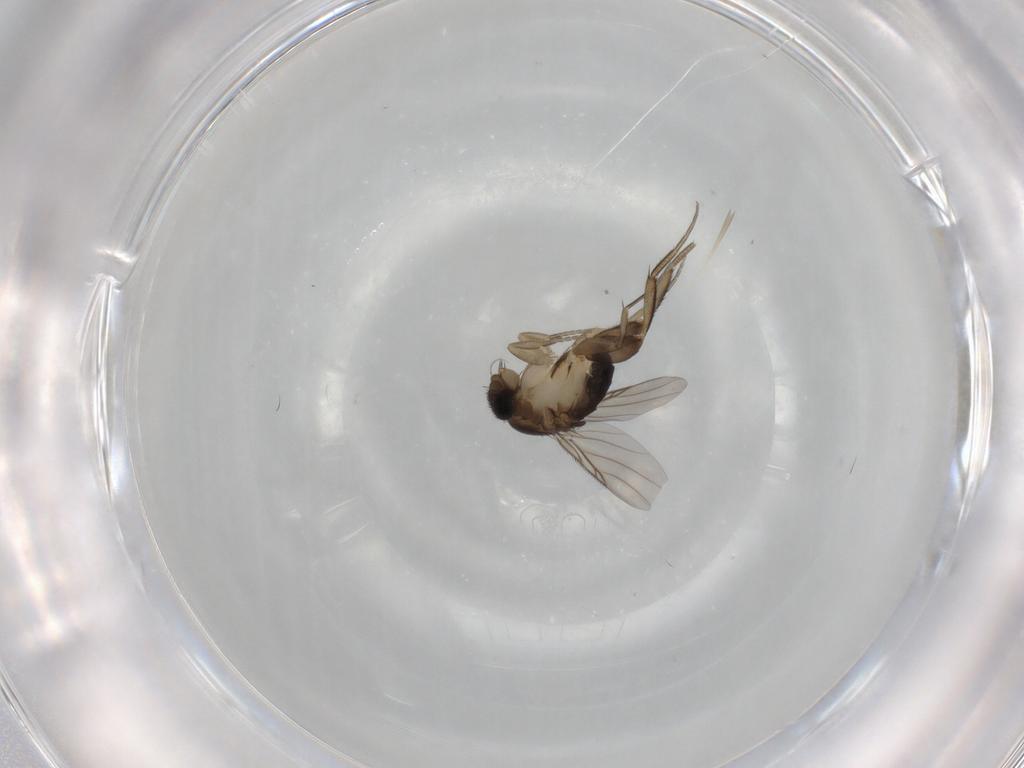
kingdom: Animalia
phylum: Arthropoda
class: Insecta
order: Diptera
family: Phoridae
